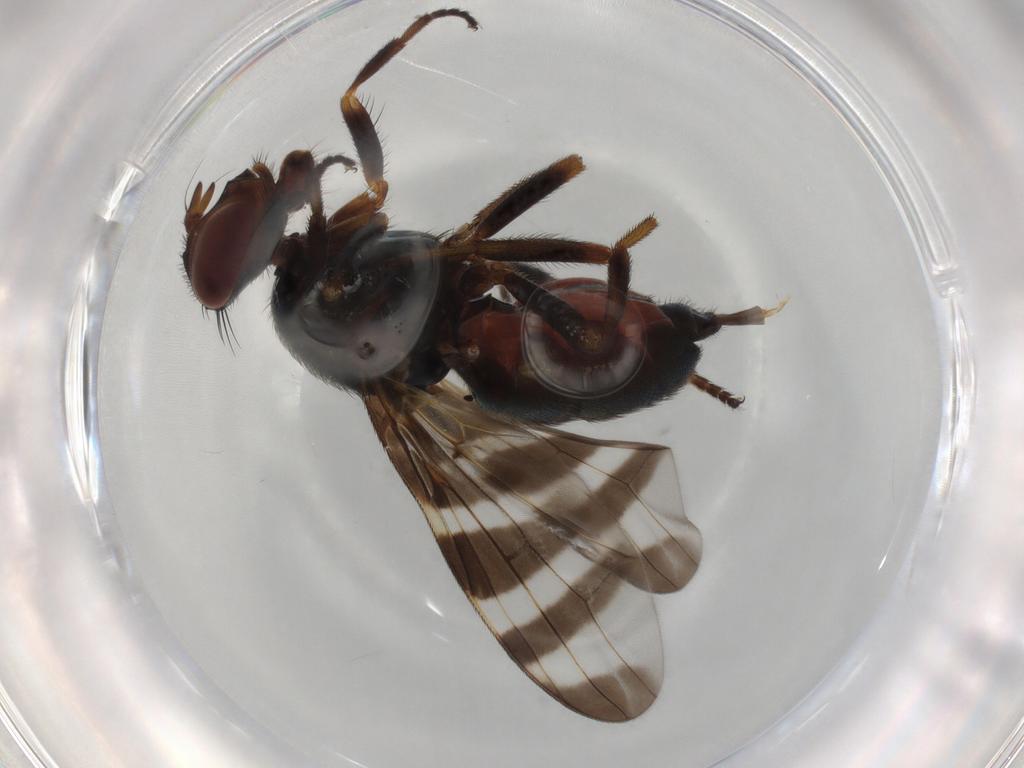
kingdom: Animalia
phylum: Arthropoda
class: Insecta
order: Diptera
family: Platystomatidae
